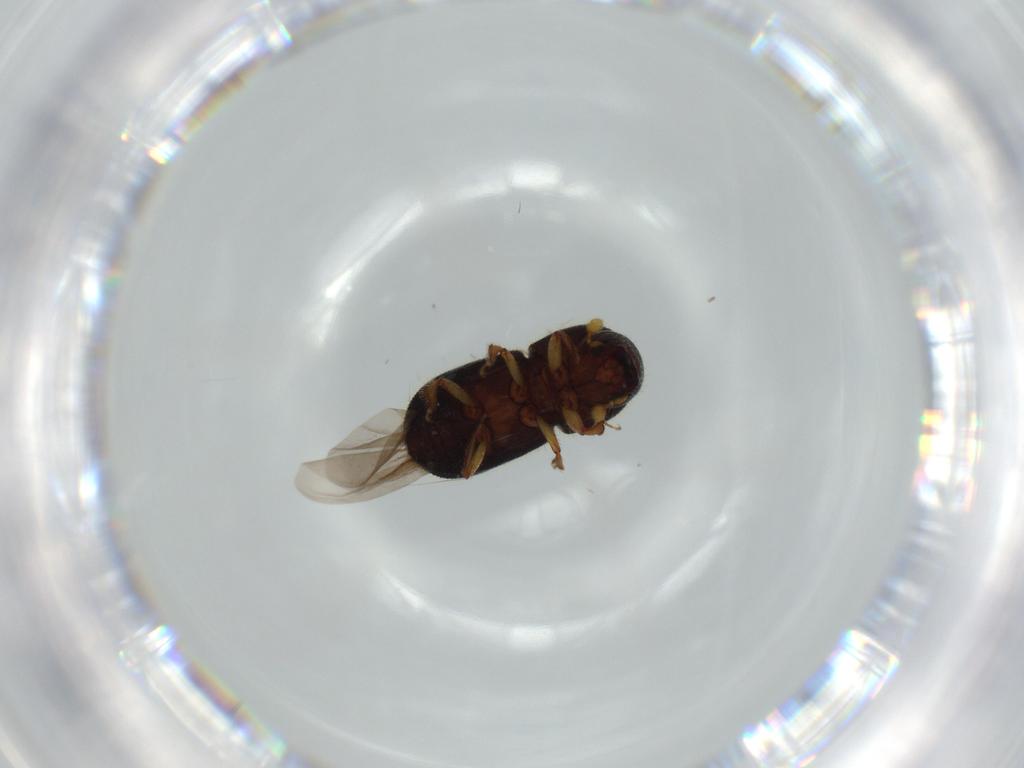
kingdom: Animalia
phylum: Arthropoda
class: Insecta
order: Coleoptera
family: Curculionidae
